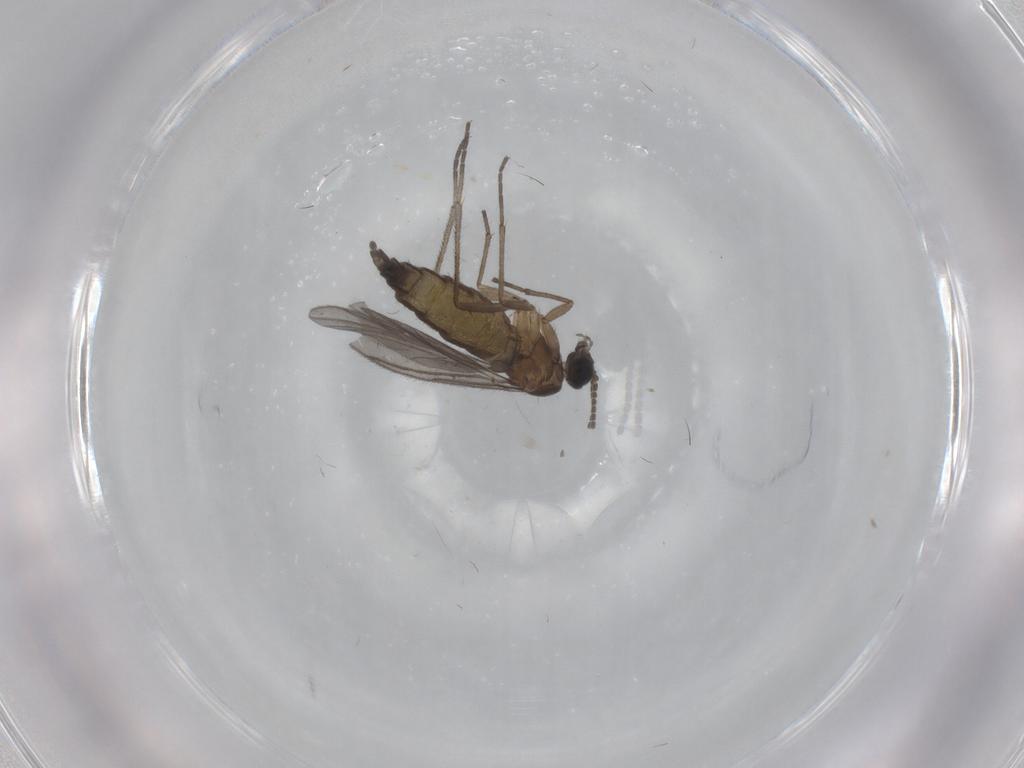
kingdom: Animalia
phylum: Arthropoda
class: Insecta
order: Diptera
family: Sciaridae
